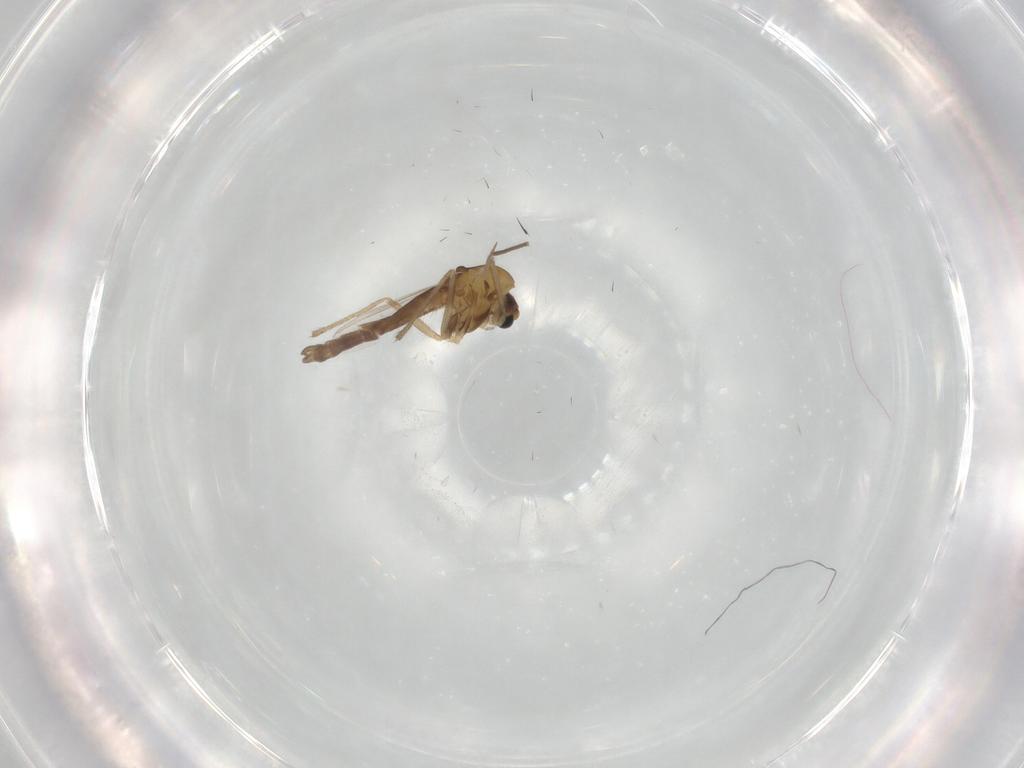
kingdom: Animalia
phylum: Arthropoda
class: Insecta
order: Diptera
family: Chironomidae
